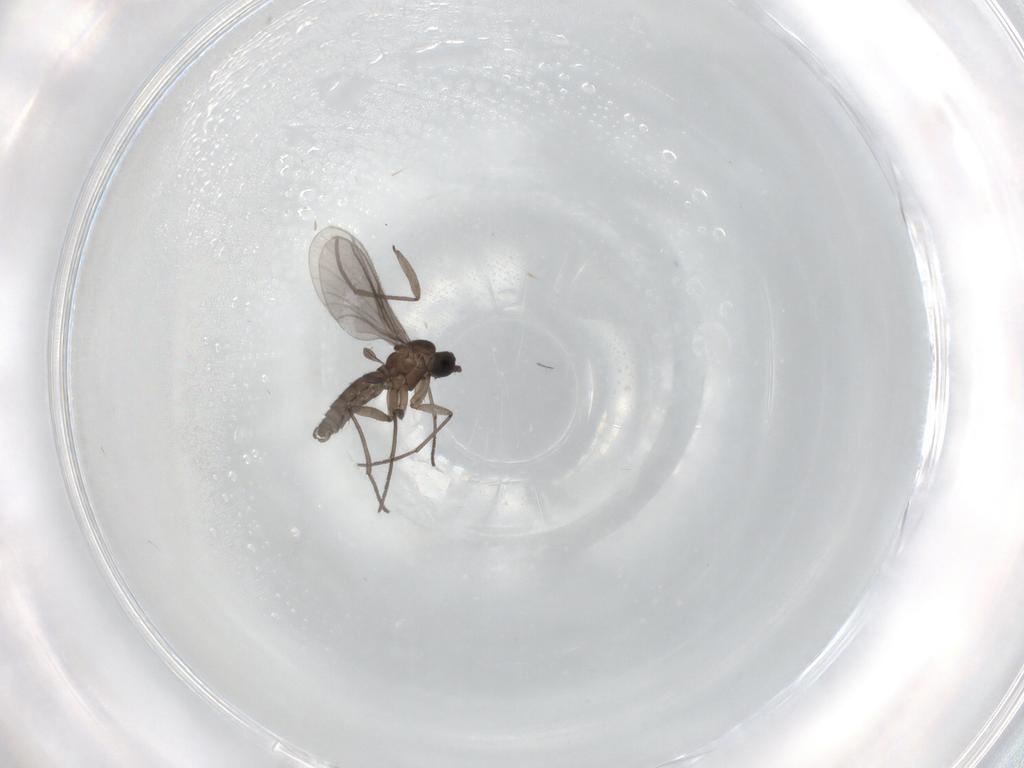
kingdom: Animalia
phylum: Arthropoda
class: Insecta
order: Diptera
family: Chironomidae
